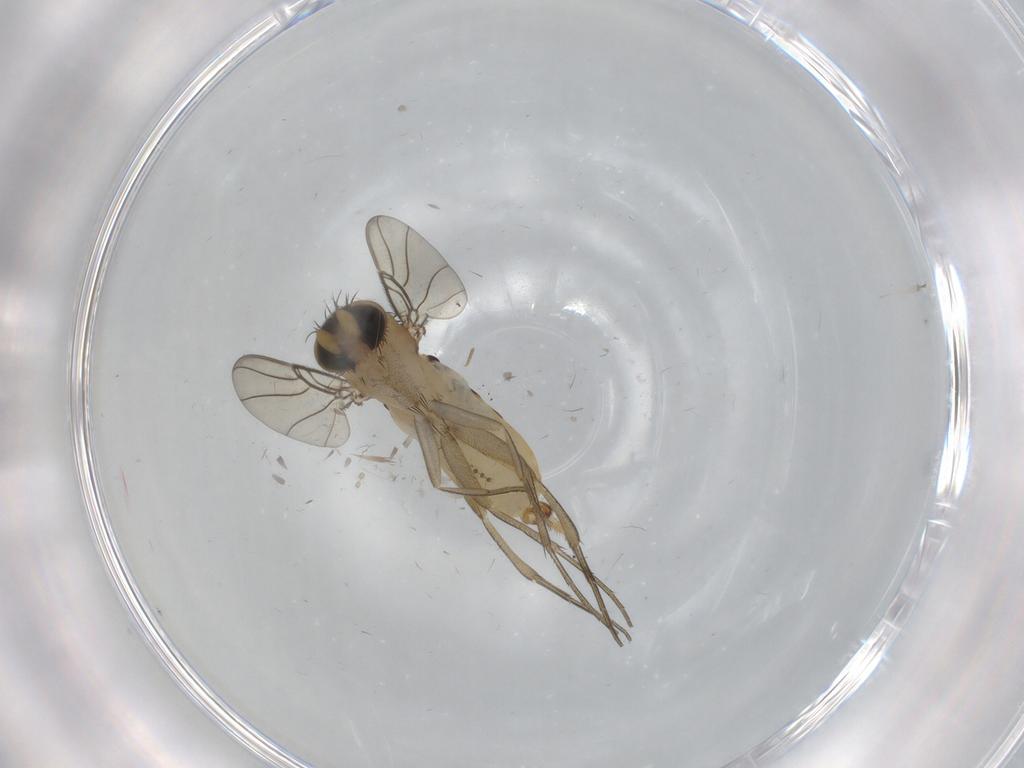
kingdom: Animalia
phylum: Arthropoda
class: Insecta
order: Diptera
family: Phoridae
